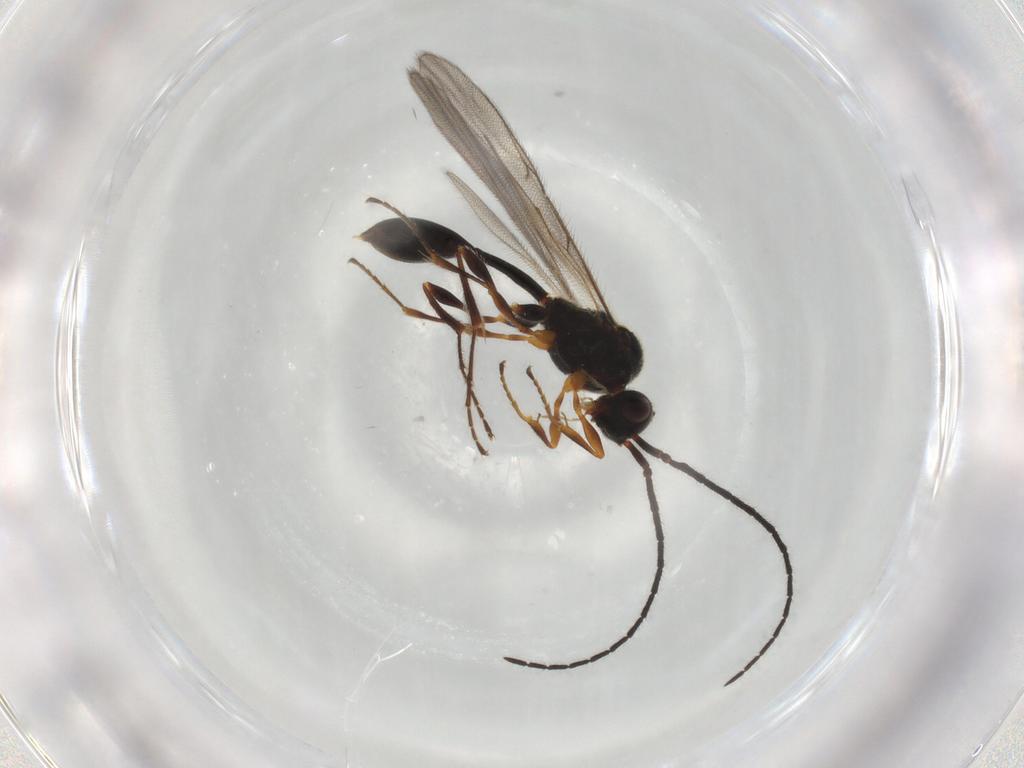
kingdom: Animalia
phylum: Arthropoda
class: Insecta
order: Hymenoptera
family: Diapriidae
